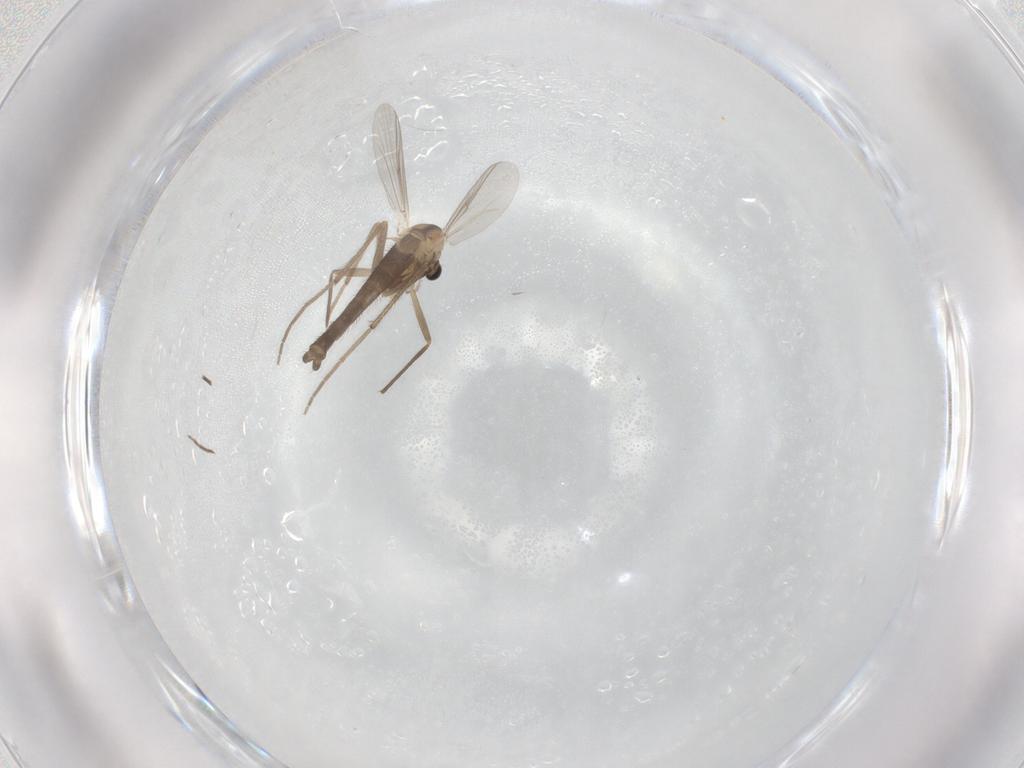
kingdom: Animalia
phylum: Arthropoda
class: Insecta
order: Diptera
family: Chironomidae
